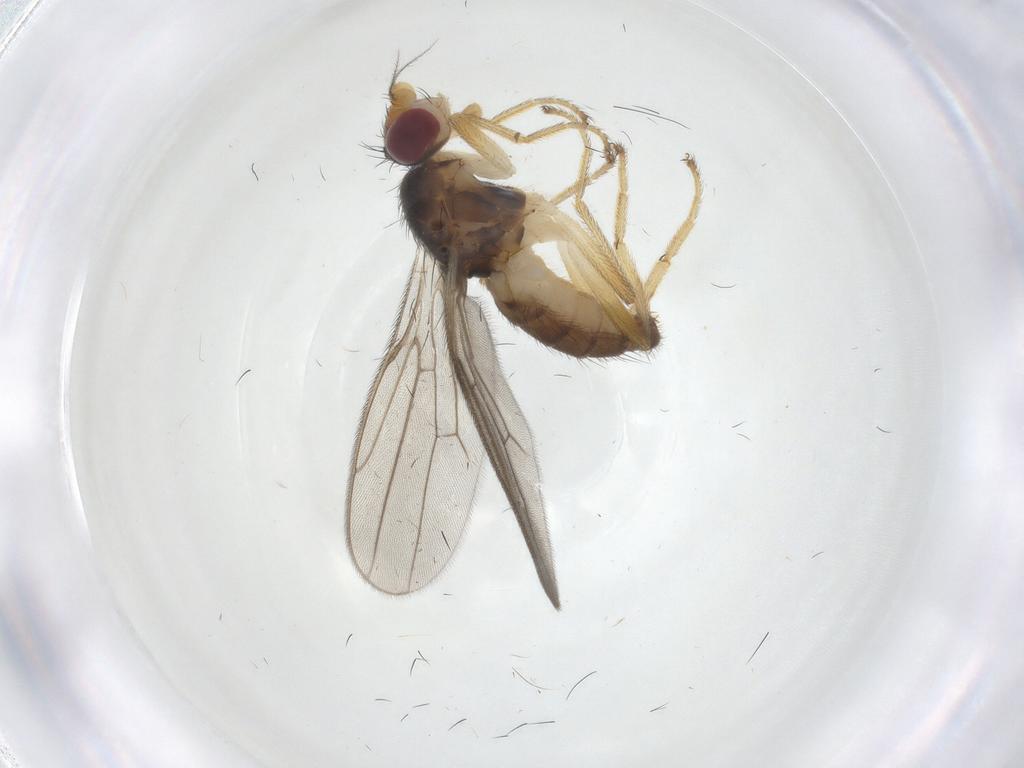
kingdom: Animalia
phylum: Arthropoda
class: Insecta
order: Diptera
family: Chloropidae
